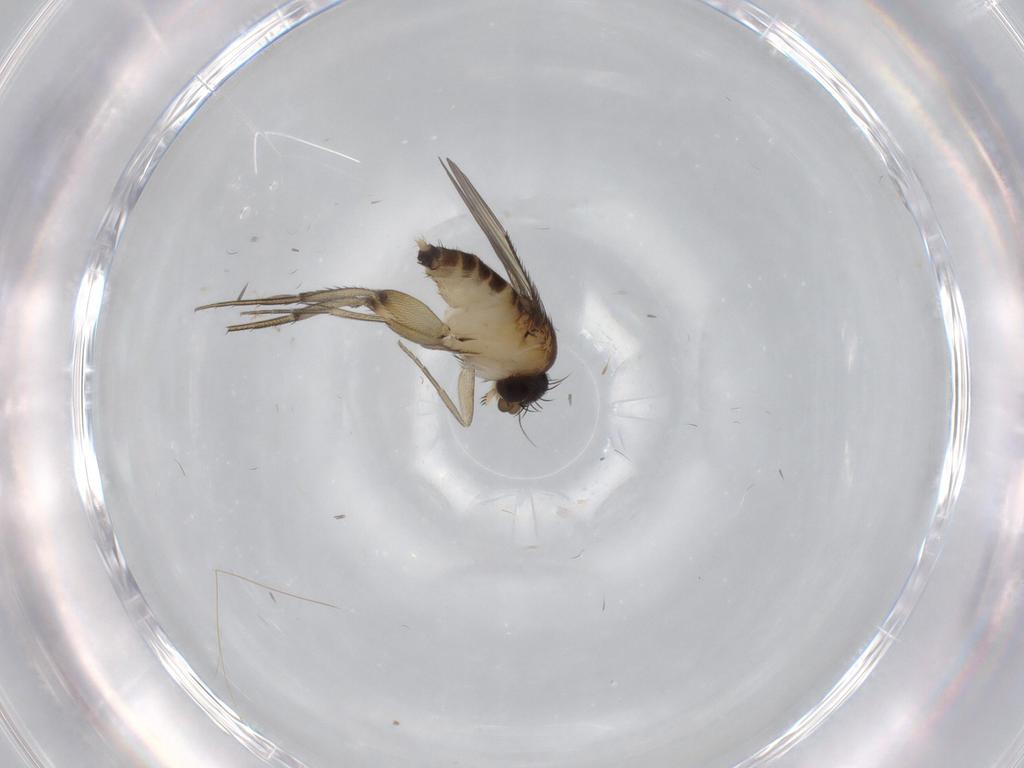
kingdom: Animalia
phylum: Arthropoda
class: Insecta
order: Diptera
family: Phoridae
